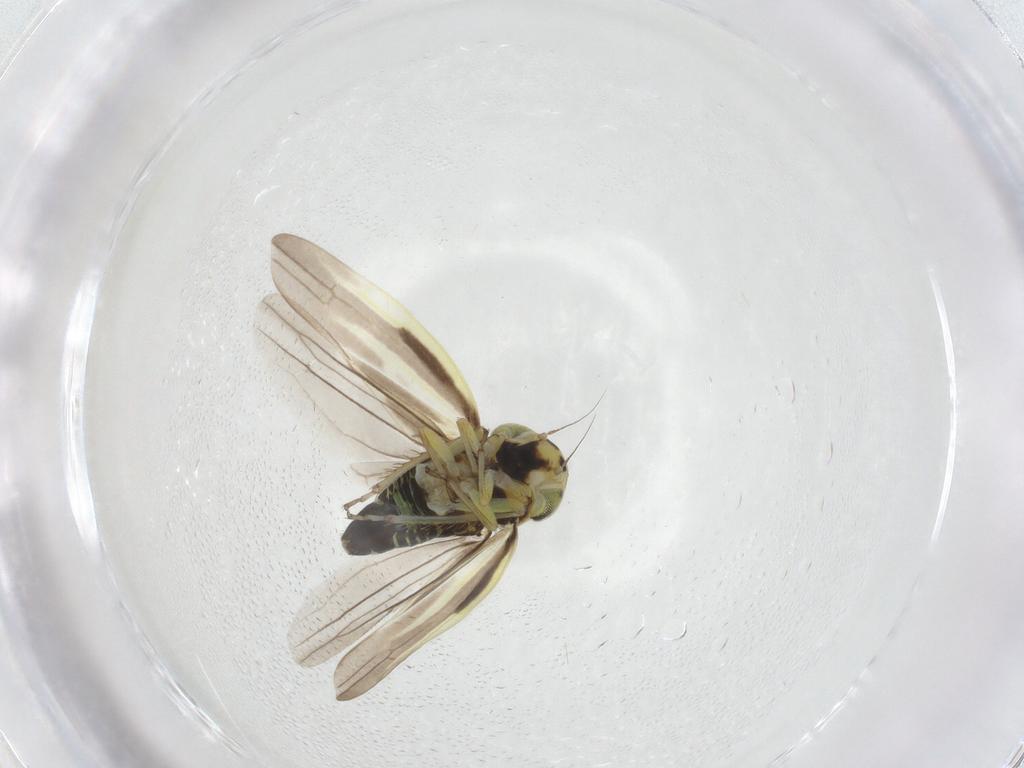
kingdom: Animalia
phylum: Arthropoda
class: Insecta
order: Hemiptera
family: Cicadellidae
